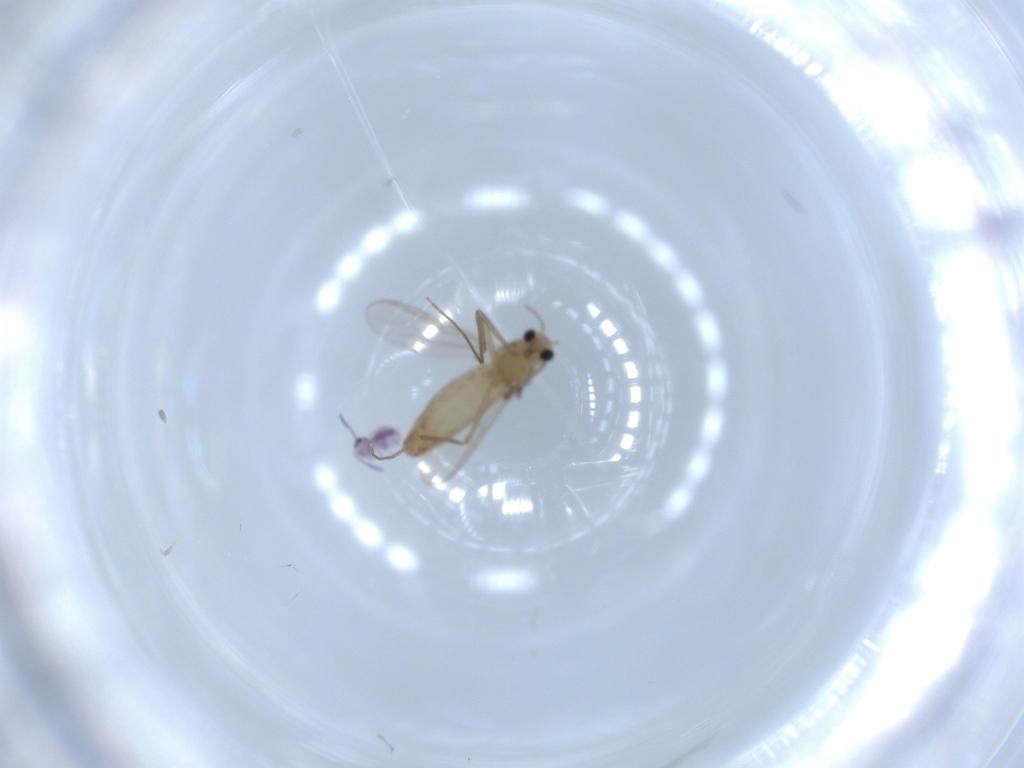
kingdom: Animalia
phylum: Arthropoda
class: Insecta
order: Diptera
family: Chironomidae
